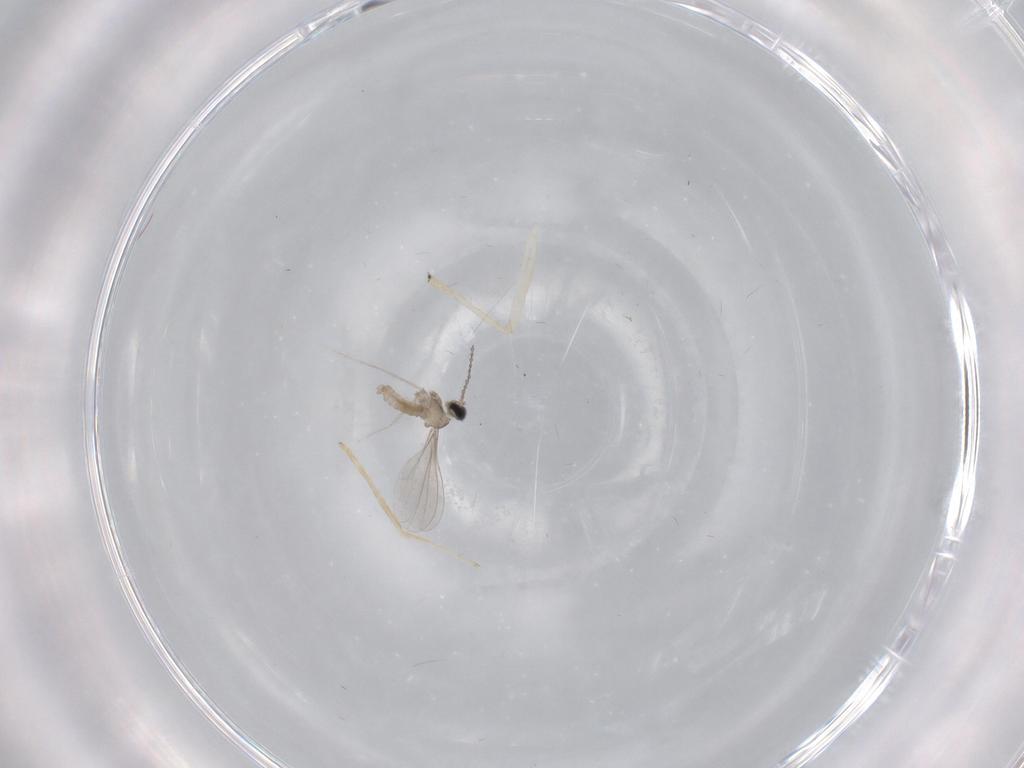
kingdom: Animalia
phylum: Arthropoda
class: Insecta
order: Diptera
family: Chironomidae
